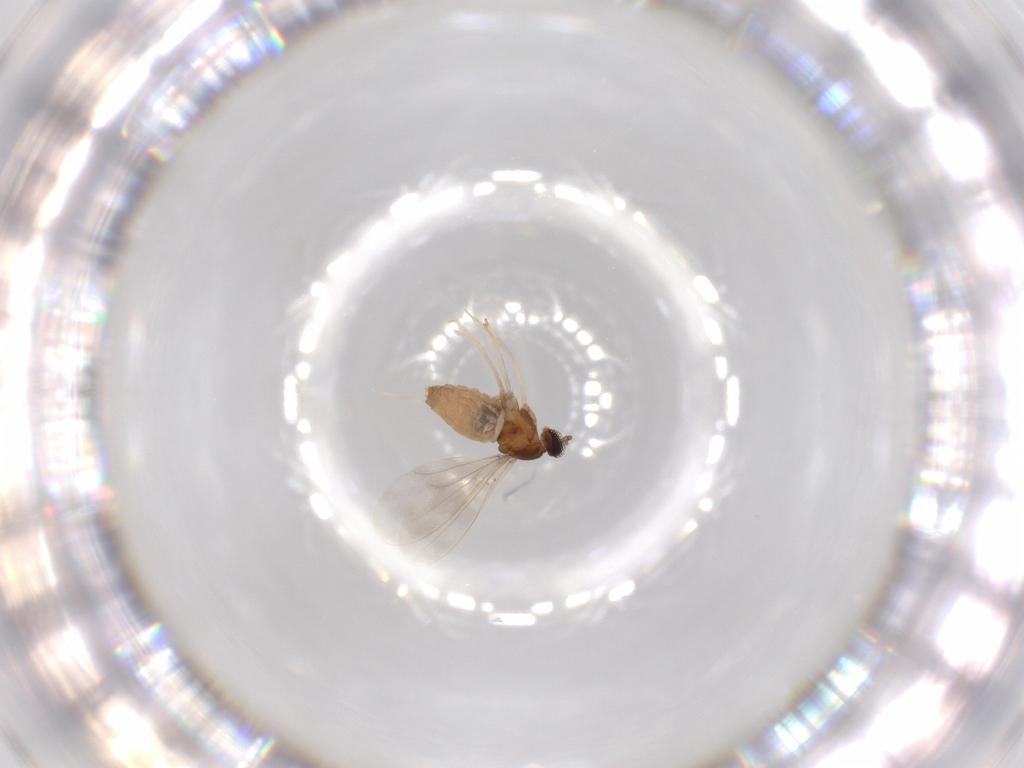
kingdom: Animalia
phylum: Arthropoda
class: Insecta
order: Diptera
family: Cecidomyiidae
